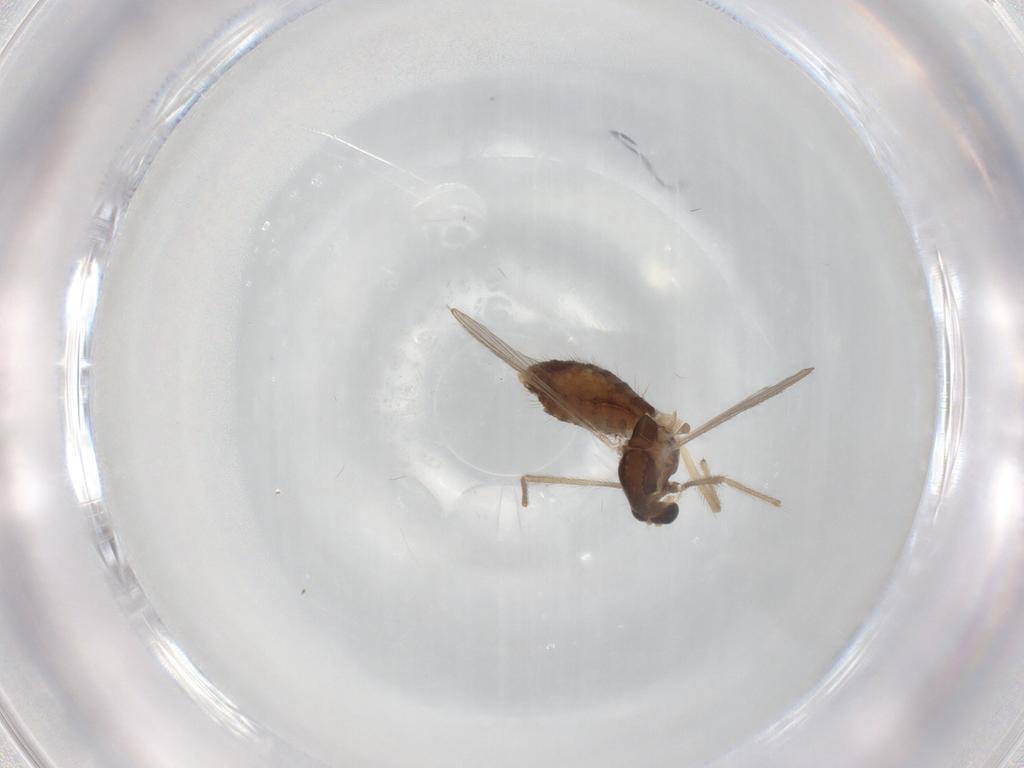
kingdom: Animalia
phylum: Arthropoda
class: Insecta
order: Diptera
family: Chironomidae
